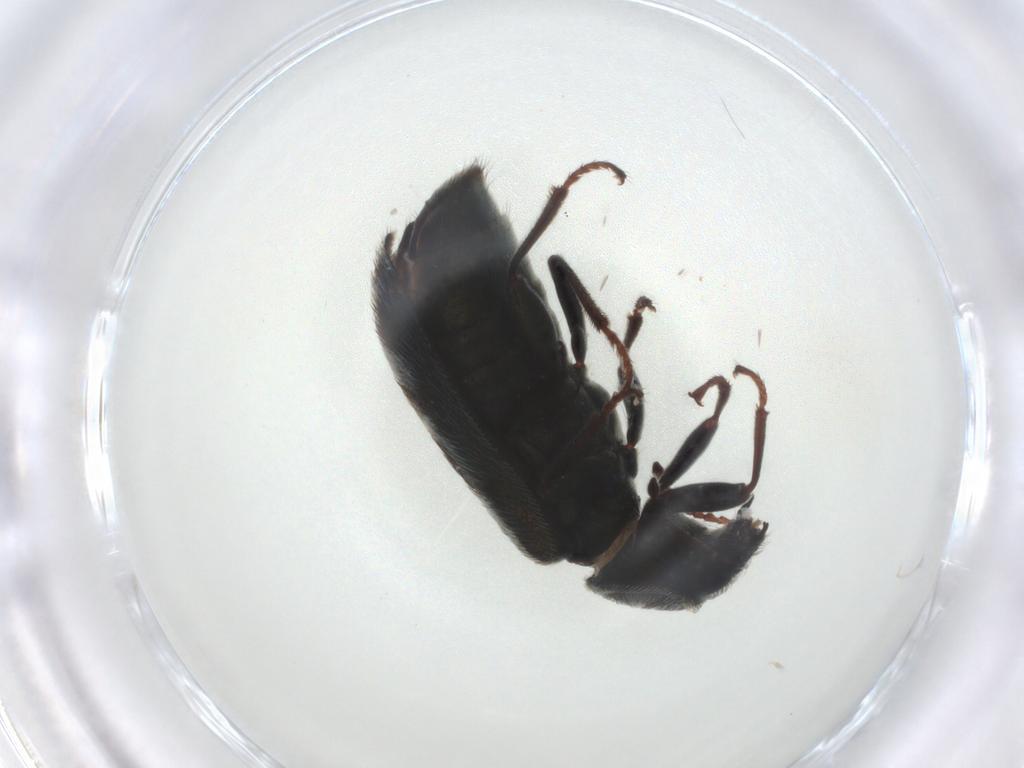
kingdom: Animalia
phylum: Arthropoda
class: Insecta
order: Coleoptera
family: Melyridae
